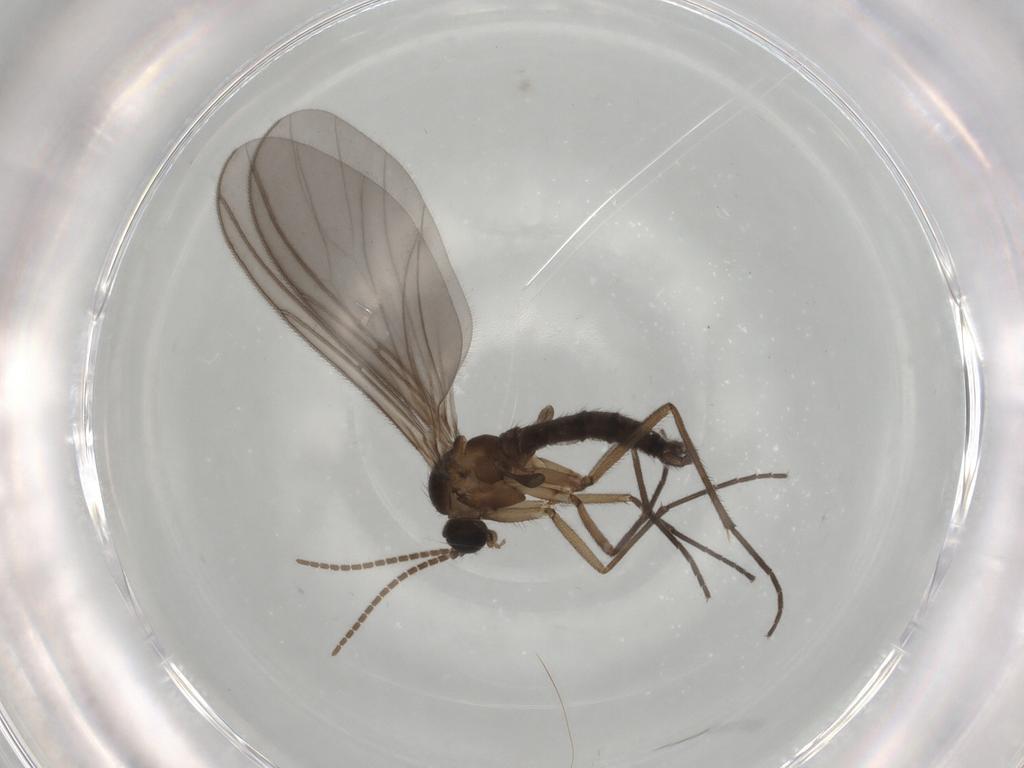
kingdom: Animalia
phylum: Arthropoda
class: Insecta
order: Diptera
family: Sciaridae
